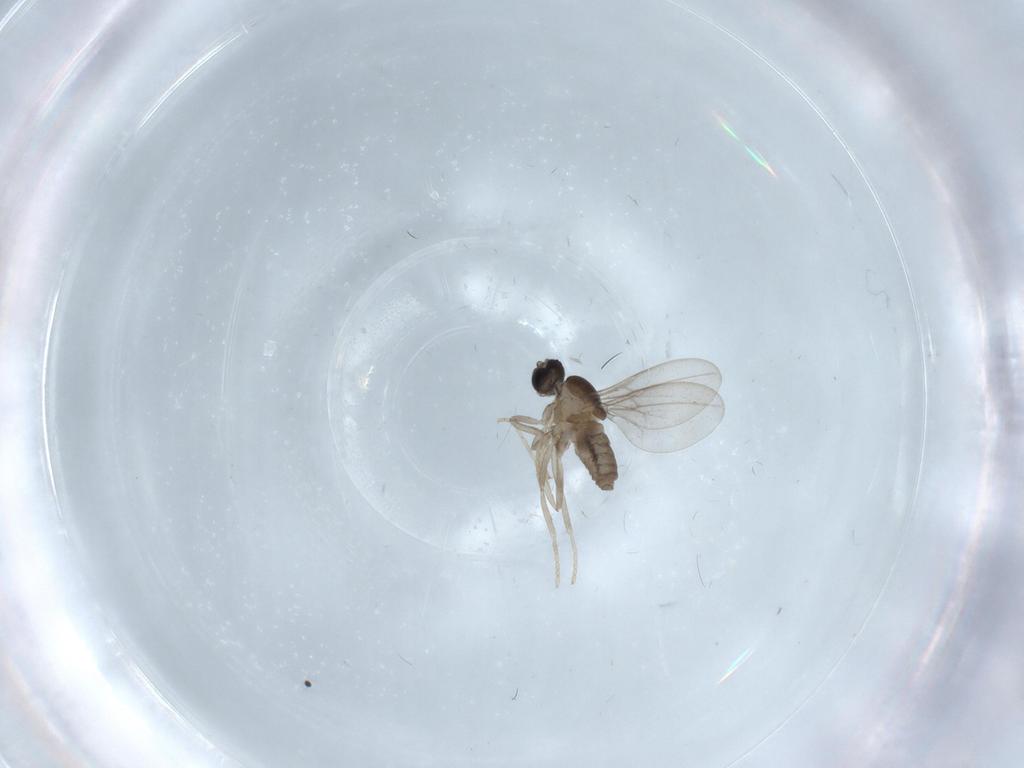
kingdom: Animalia
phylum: Arthropoda
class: Insecta
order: Diptera
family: Cecidomyiidae
